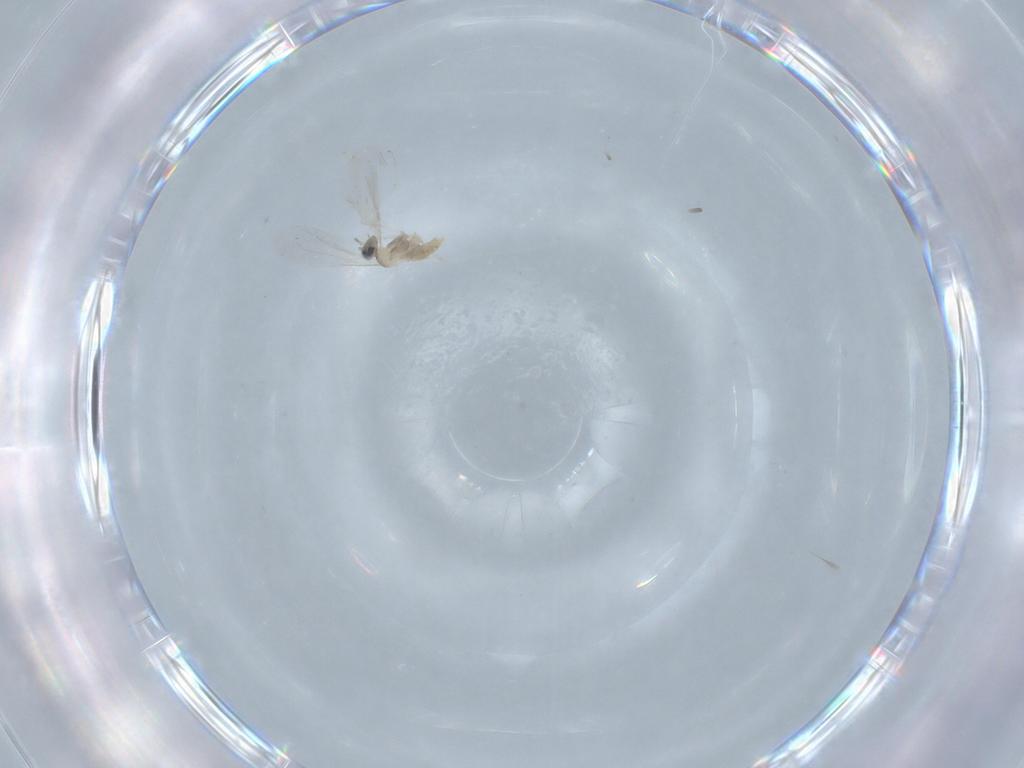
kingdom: Animalia
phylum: Arthropoda
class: Insecta
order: Diptera
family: Cecidomyiidae
